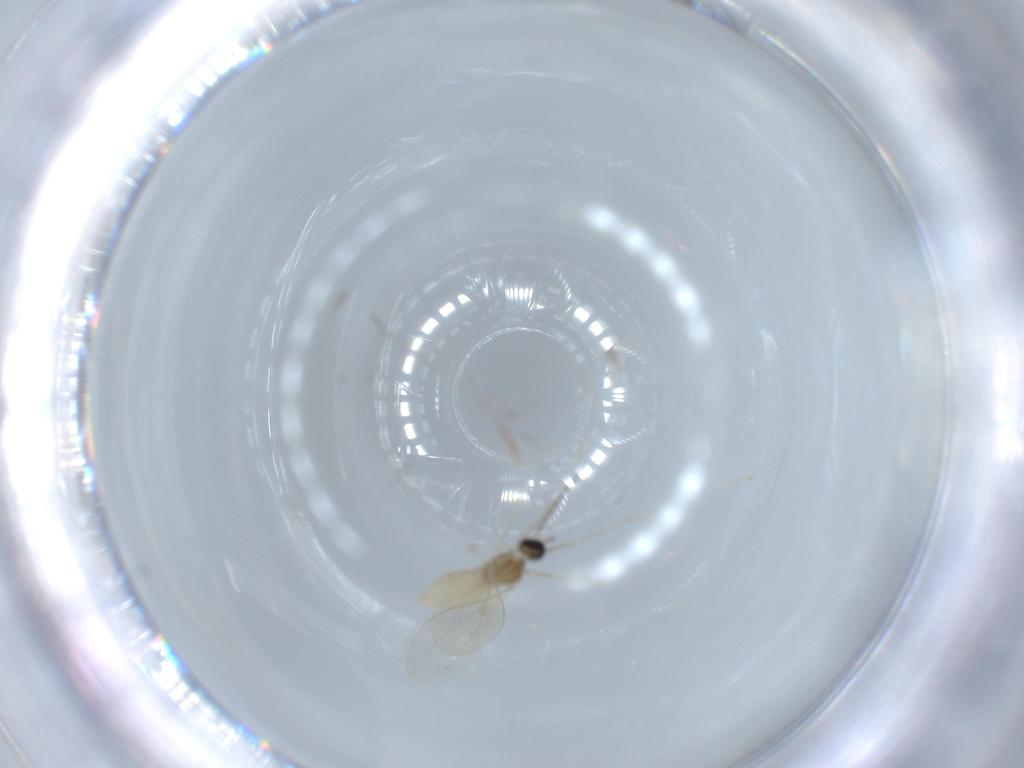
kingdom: Animalia
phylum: Arthropoda
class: Insecta
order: Diptera
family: Cecidomyiidae
